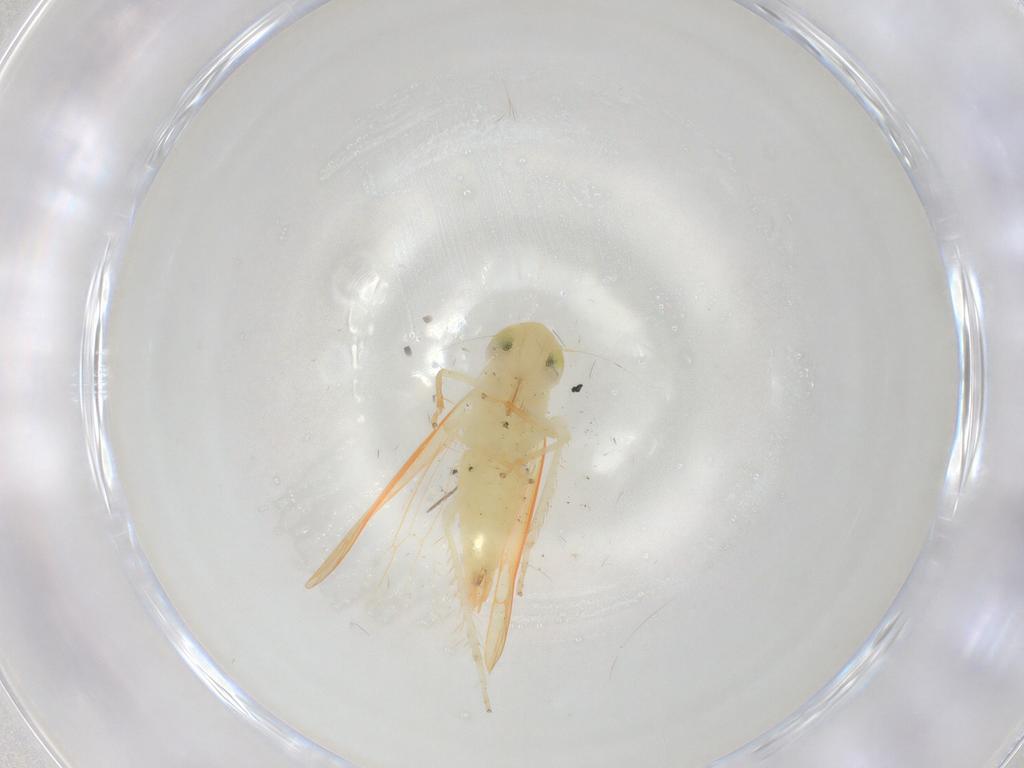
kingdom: Animalia
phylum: Arthropoda
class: Insecta
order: Hemiptera
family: Cicadellidae
